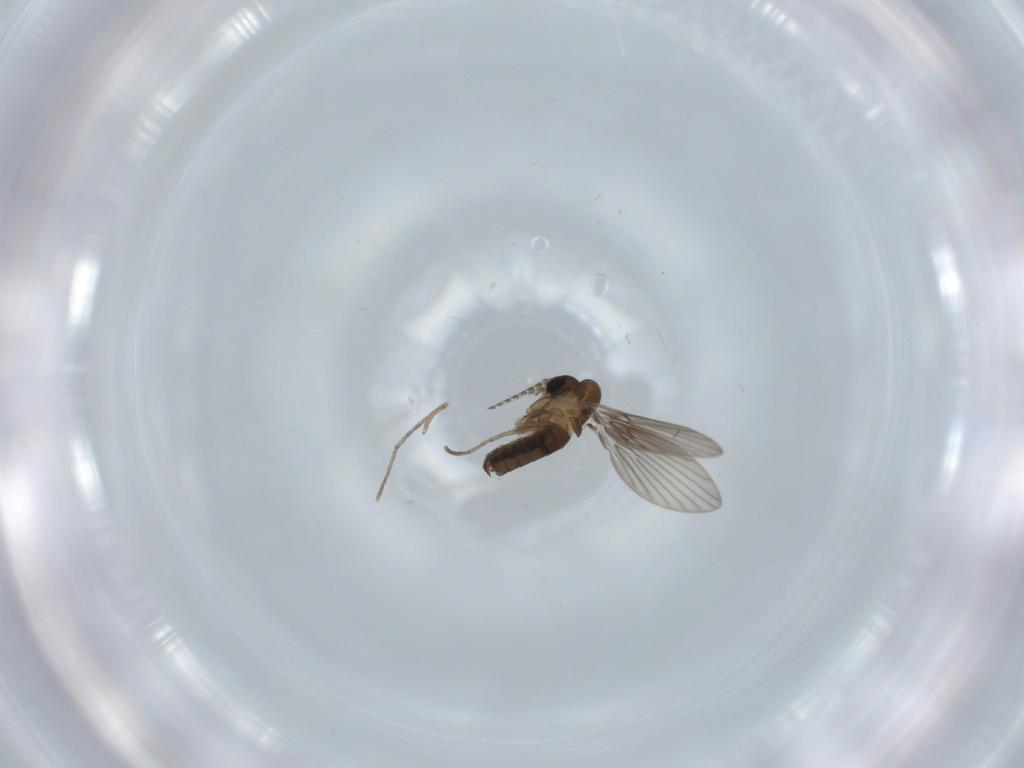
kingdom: Animalia
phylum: Arthropoda
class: Insecta
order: Diptera
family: Psychodidae
